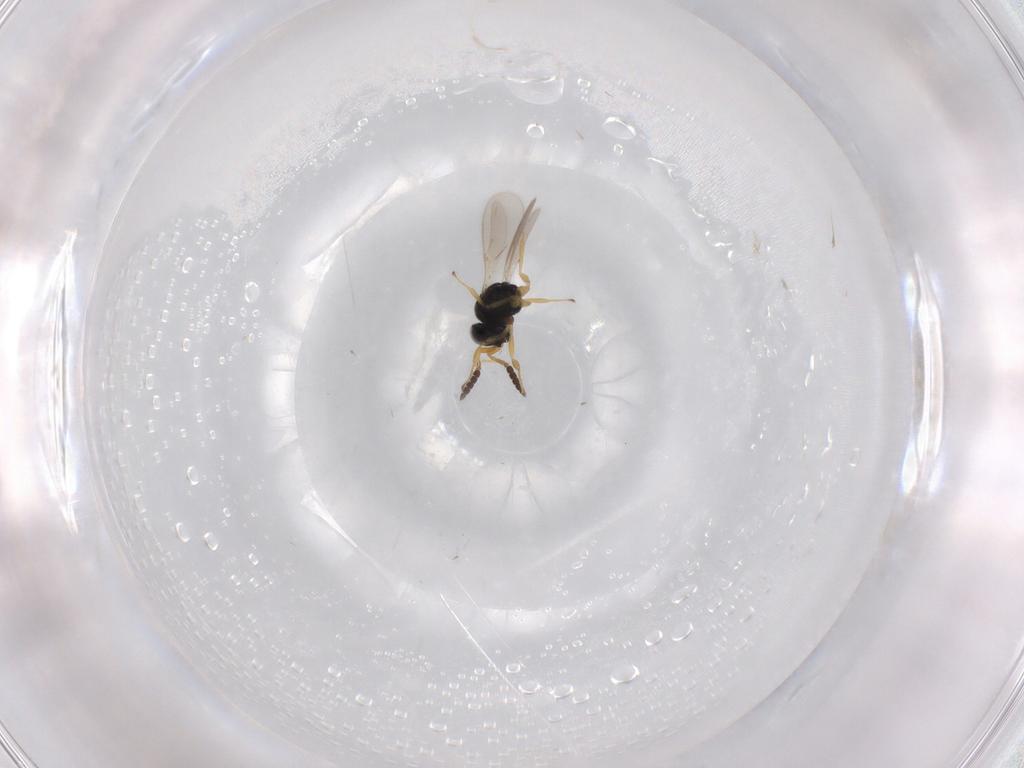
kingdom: Animalia
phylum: Arthropoda
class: Insecta
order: Hymenoptera
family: Scelionidae
